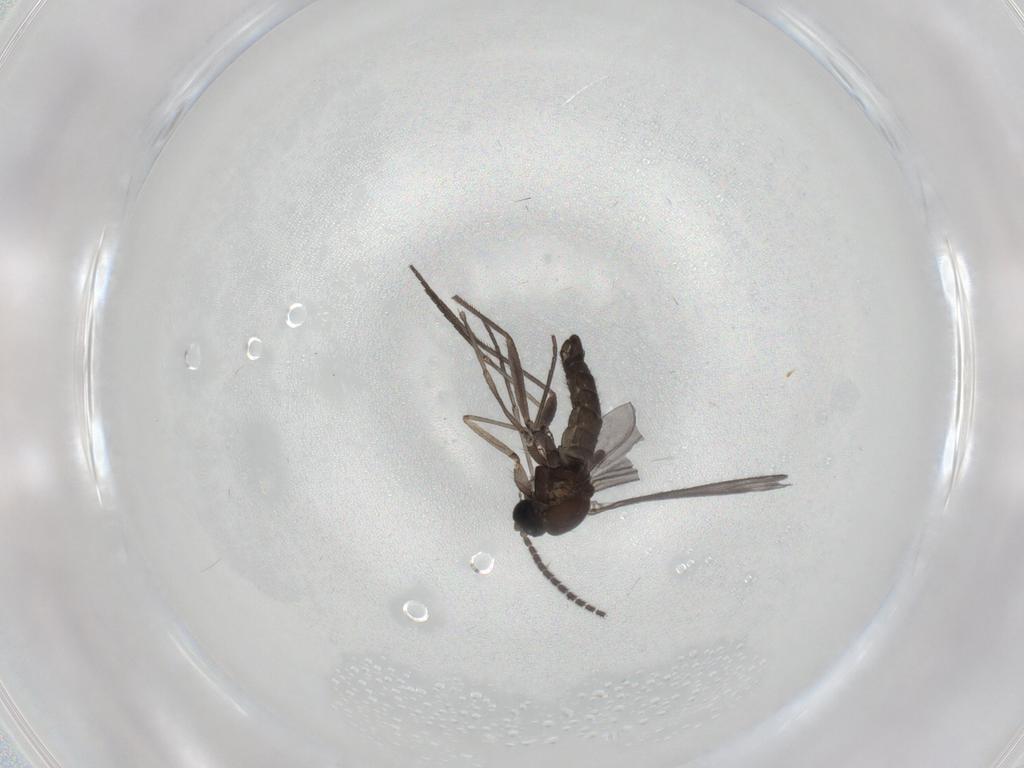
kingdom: Animalia
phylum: Arthropoda
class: Insecta
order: Diptera
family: Sciaridae
